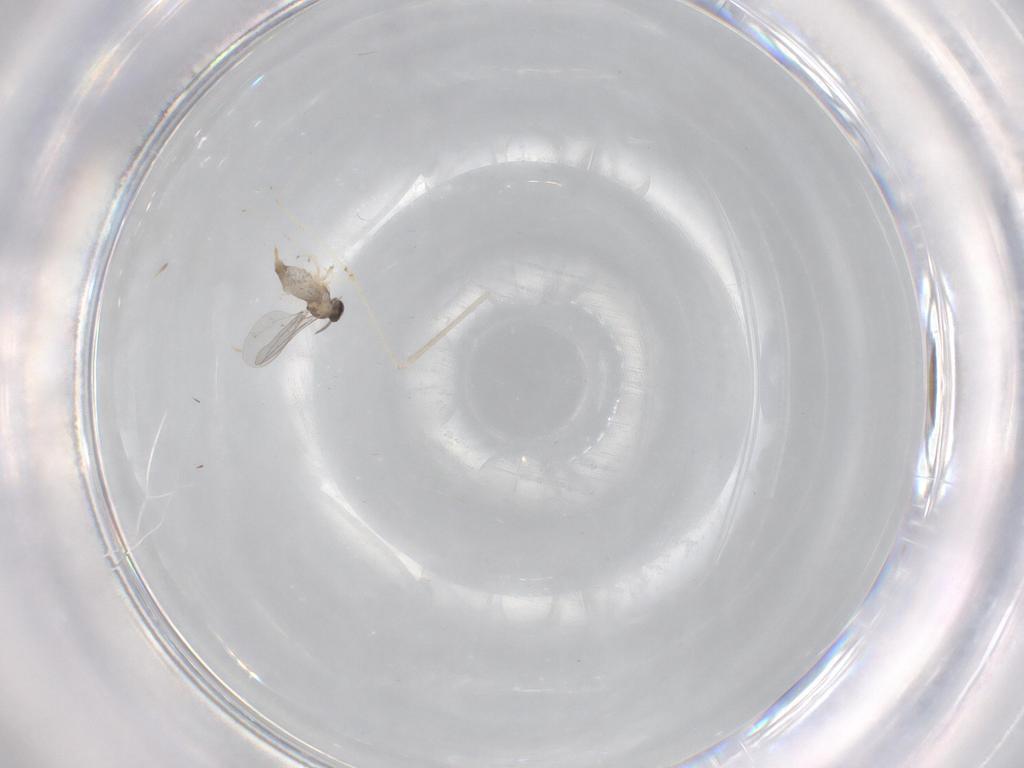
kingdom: Animalia
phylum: Arthropoda
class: Insecta
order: Diptera
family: Cecidomyiidae
